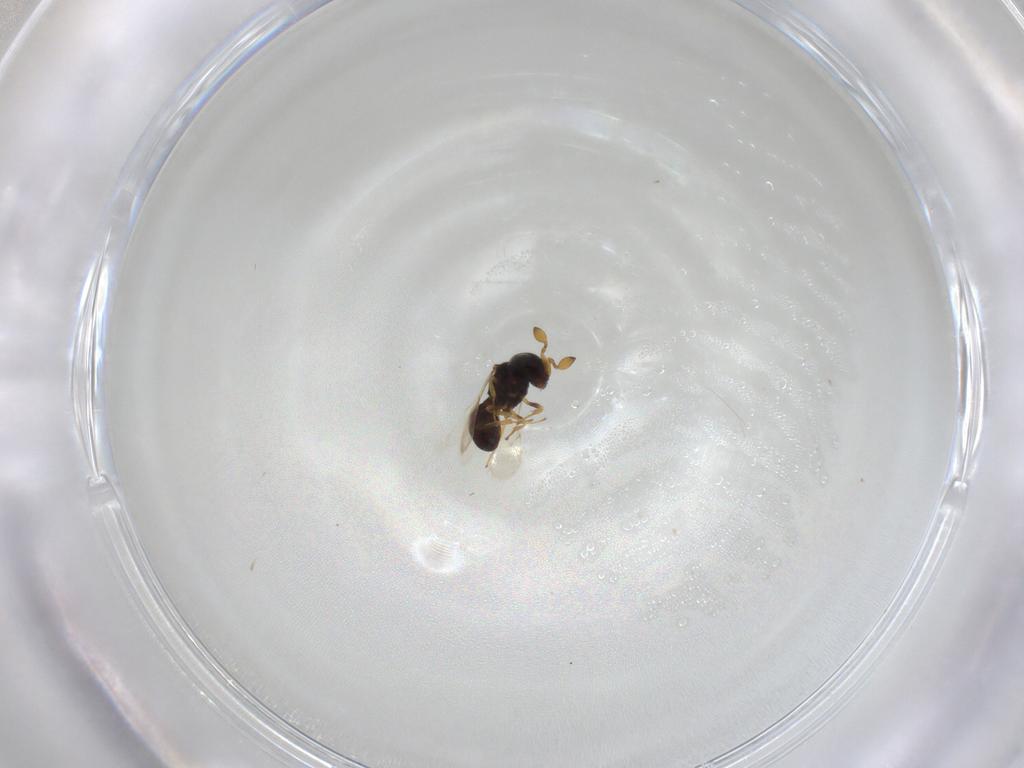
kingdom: Animalia
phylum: Arthropoda
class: Insecta
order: Hymenoptera
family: Scelionidae
